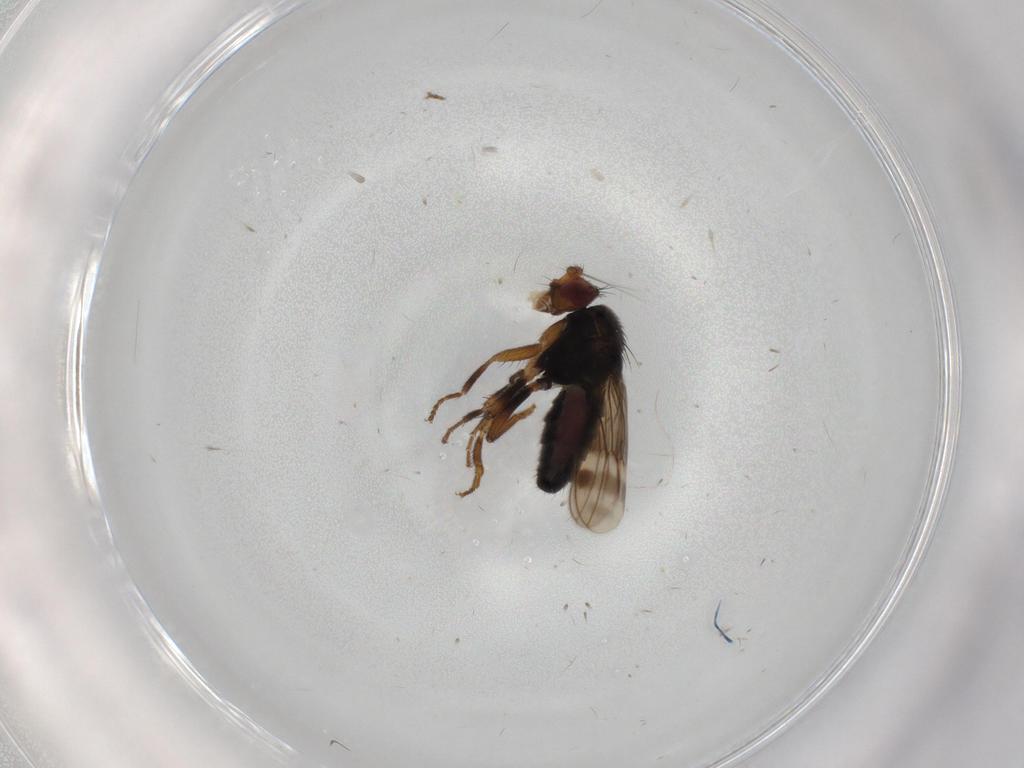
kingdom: Animalia
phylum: Arthropoda
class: Insecta
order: Diptera
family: Sphaeroceridae
